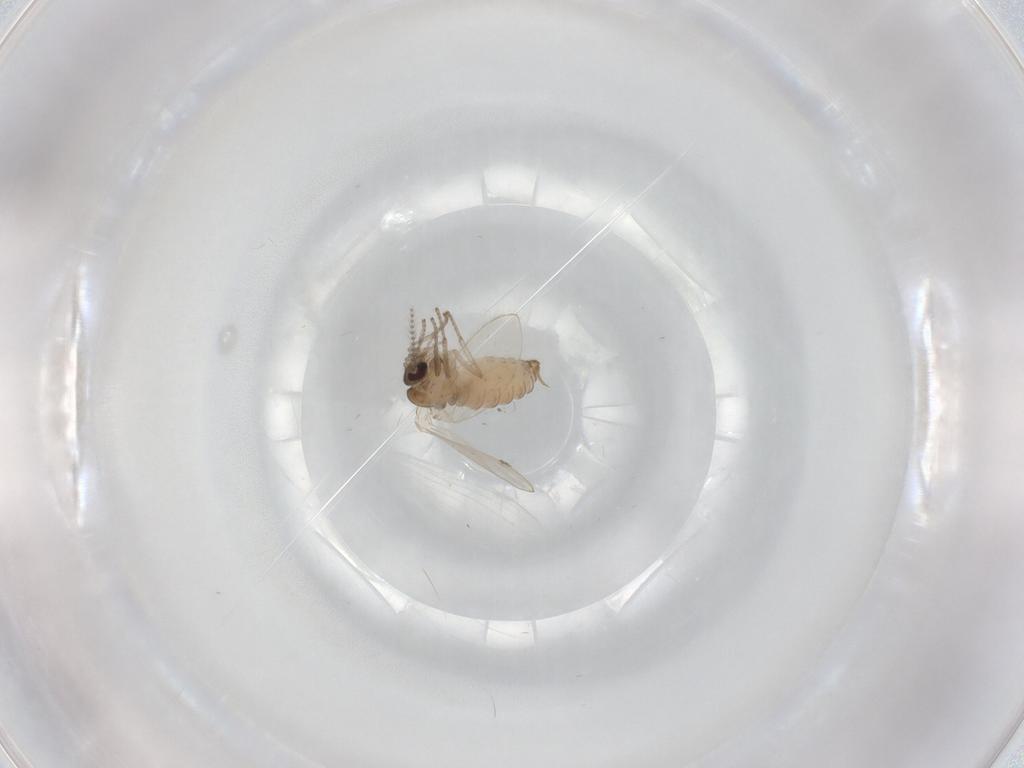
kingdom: Animalia
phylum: Arthropoda
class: Insecta
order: Diptera
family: Psychodidae
